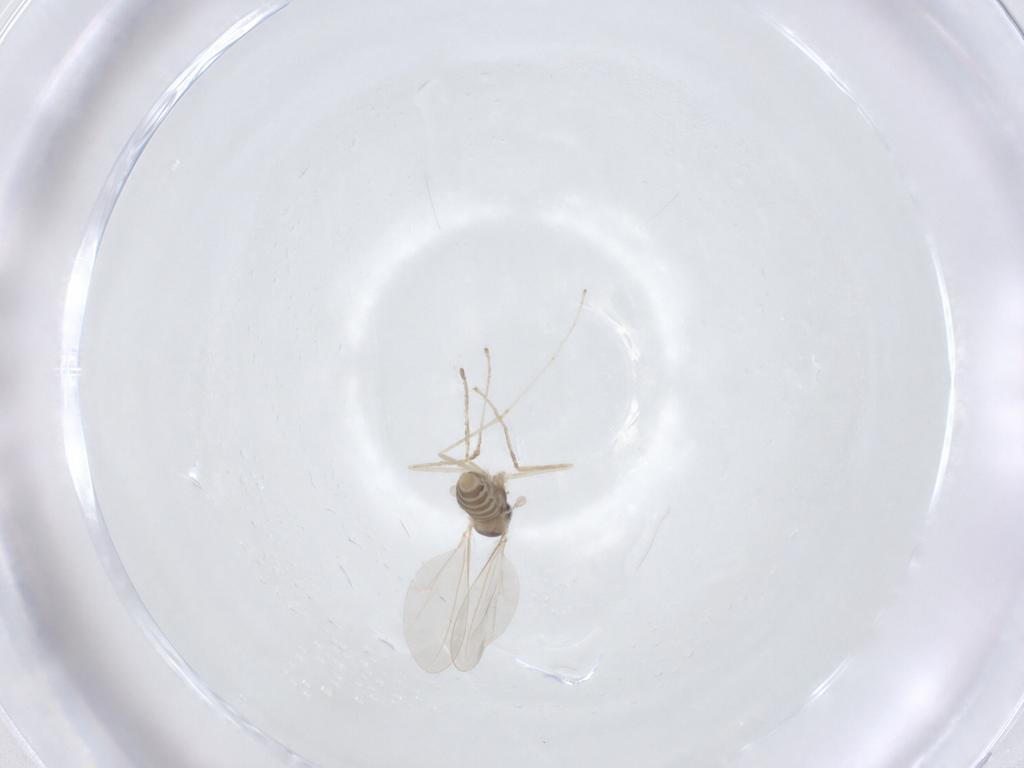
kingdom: Animalia
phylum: Arthropoda
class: Insecta
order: Diptera
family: Cecidomyiidae
